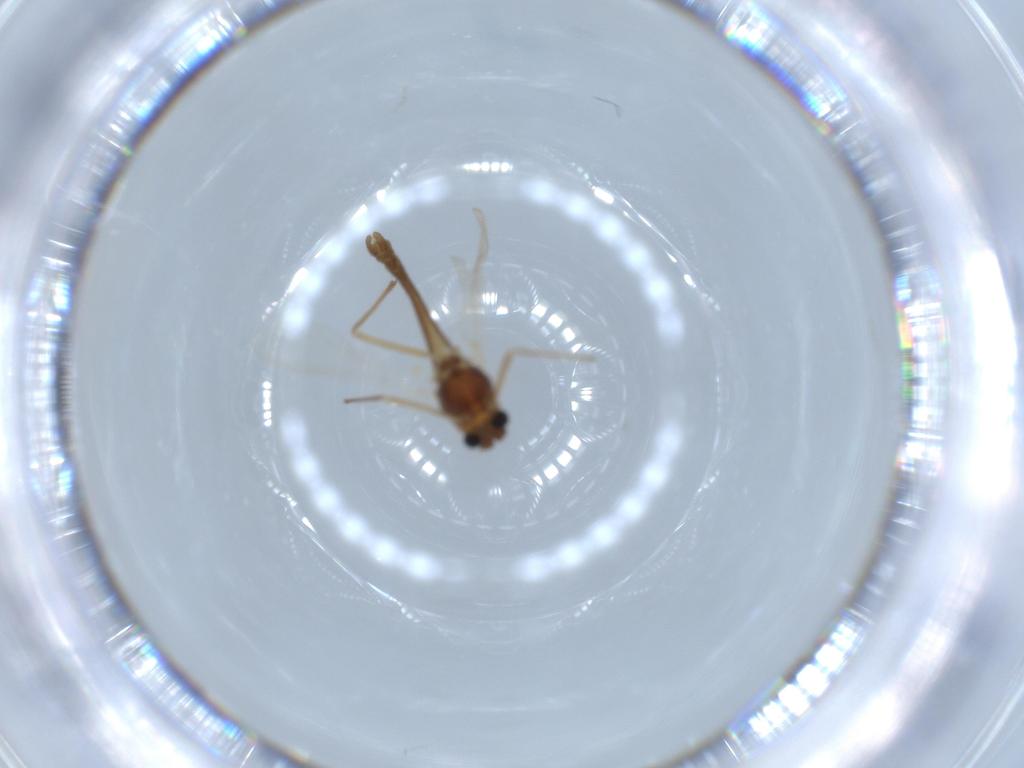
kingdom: Animalia
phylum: Arthropoda
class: Insecta
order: Diptera
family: Chironomidae
